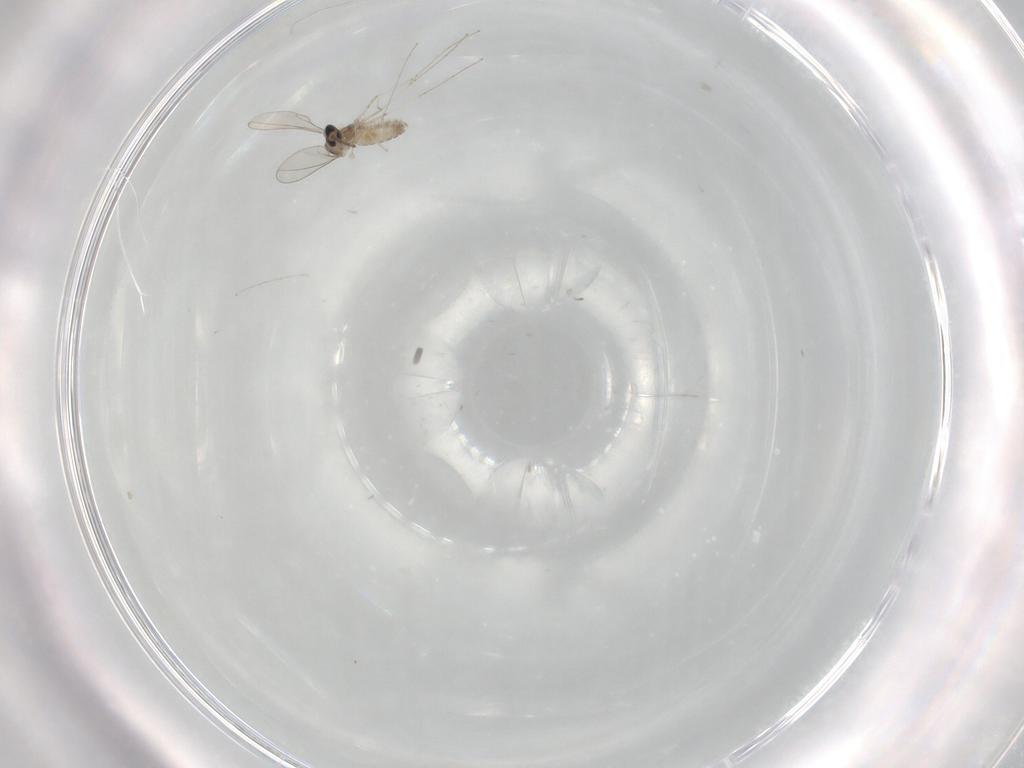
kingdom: Animalia
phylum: Arthropoda
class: Insecta
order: Diptera
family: Cecidomyiidae
